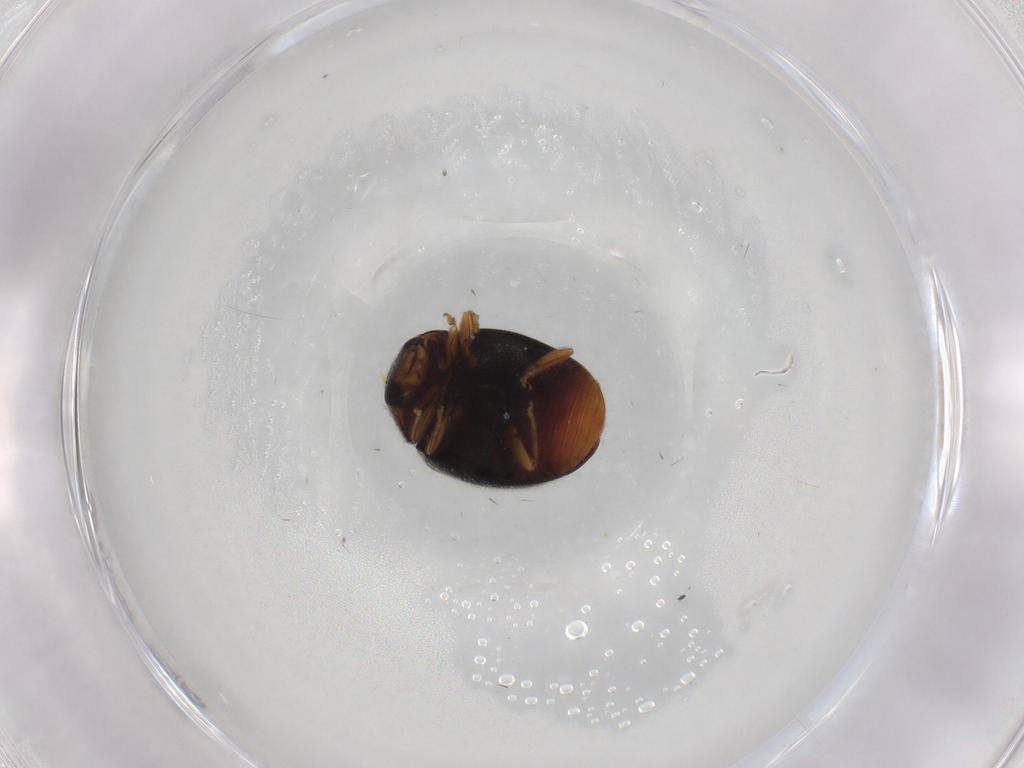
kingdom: Animalia
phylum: Arthropoda
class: Insecta
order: Coleoptera
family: Coccinellidae
